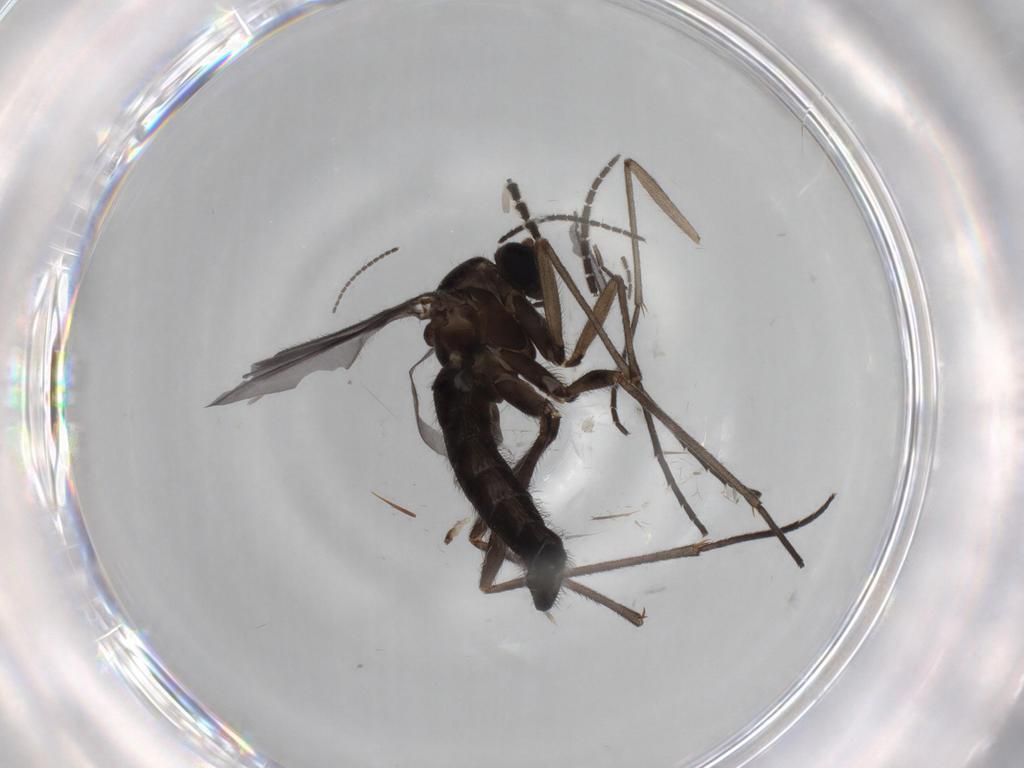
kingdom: Animalia
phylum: Arthropoda
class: Insecta
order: Diptera
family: Sciaridae
